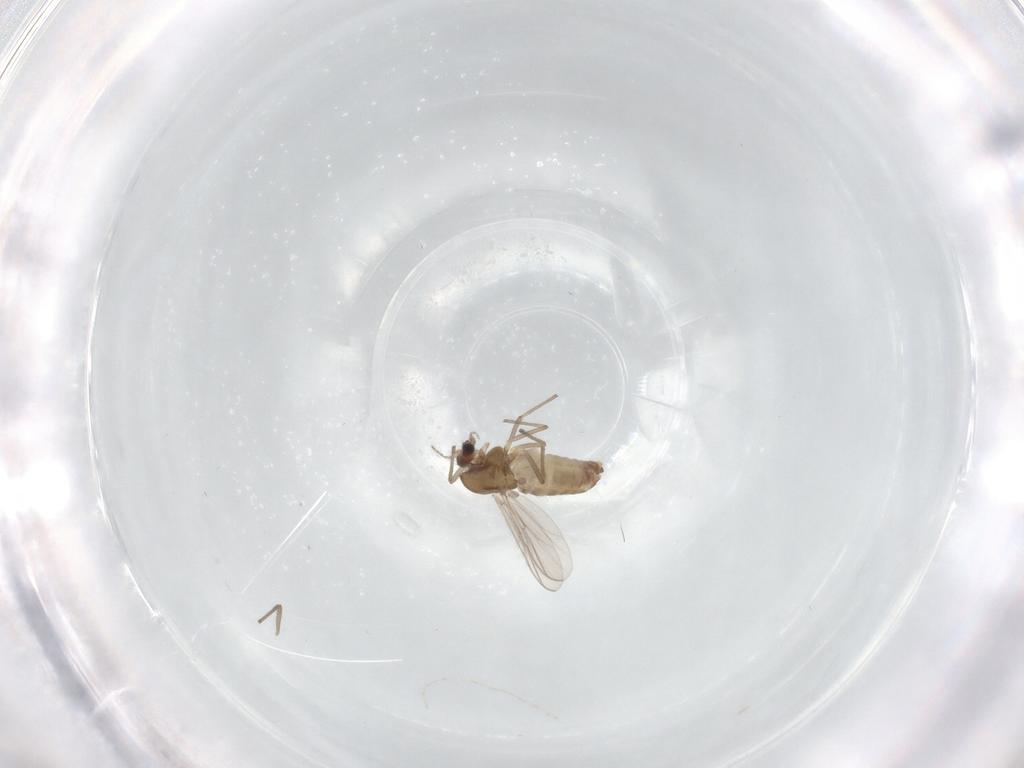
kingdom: Animalia
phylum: Arthropoda
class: Insecta
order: Diptera
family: Chironomidae
